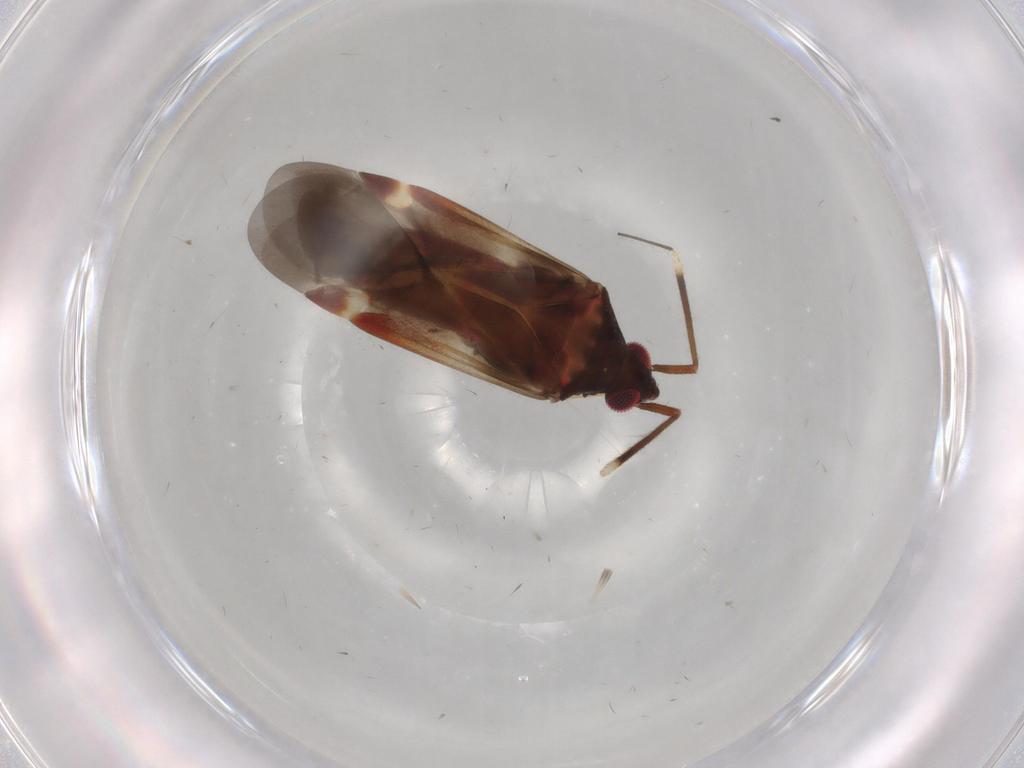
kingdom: Animalia
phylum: Arthropoda
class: Insecta
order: Hemiptera
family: Miridae
